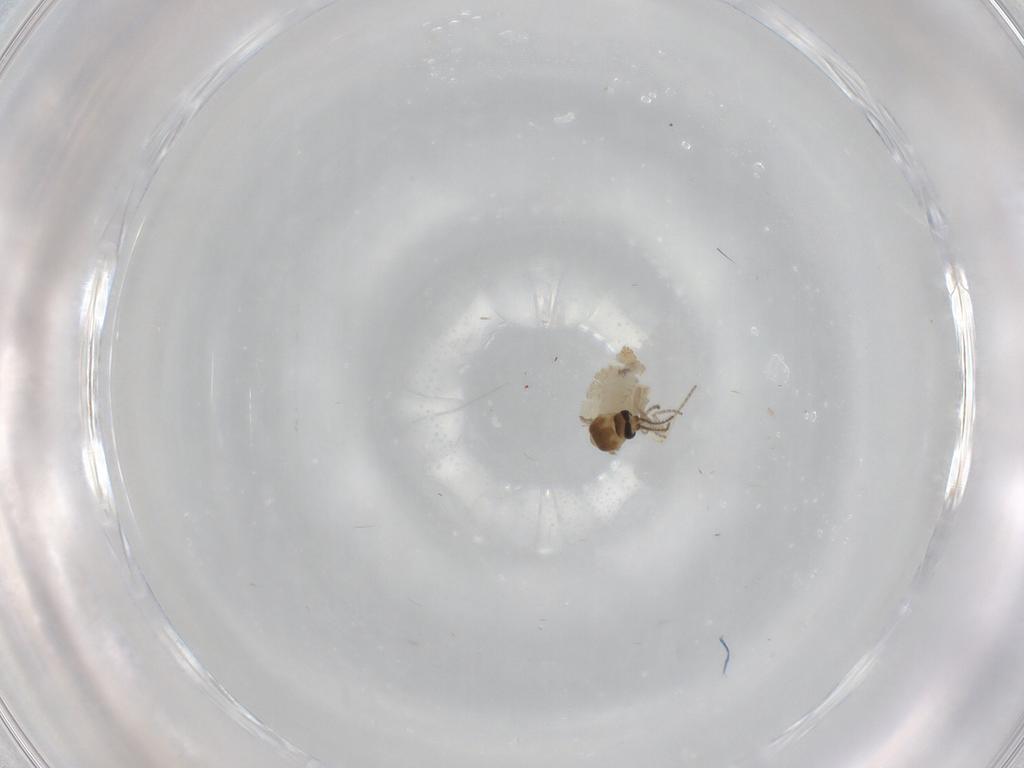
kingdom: Animalia
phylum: Arthropoda
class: Insecta
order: Diptera
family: Ceratopogonidae
